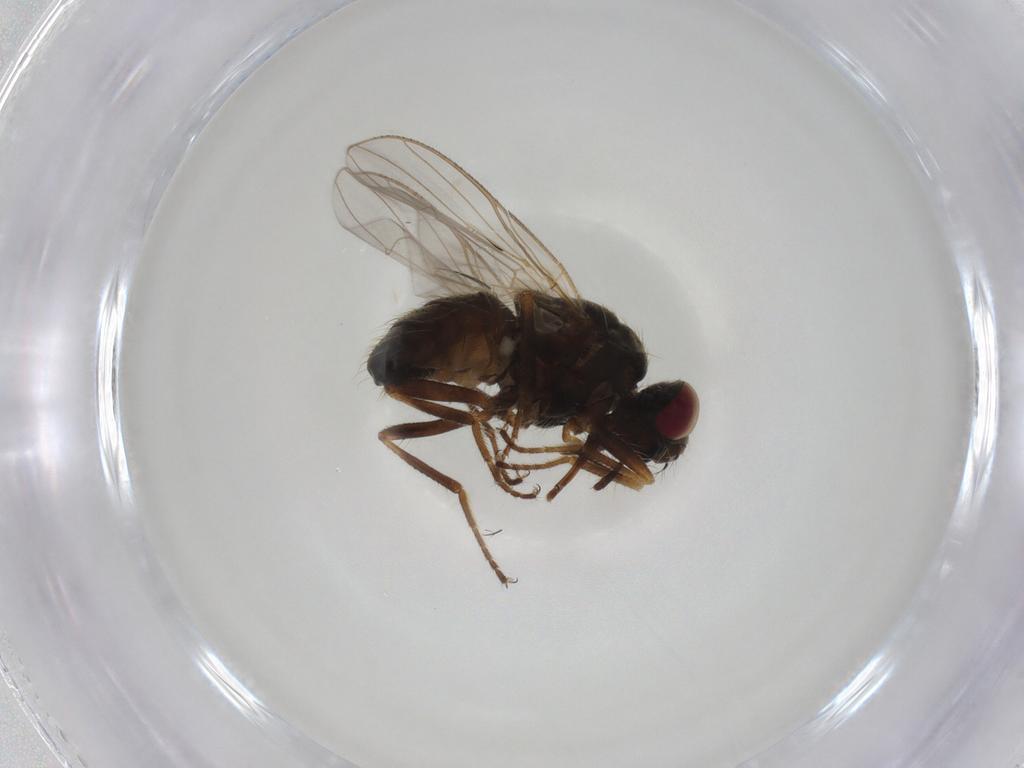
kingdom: Animalia
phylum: Arthropoda
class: Insecta
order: Diptera
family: Muscidae
